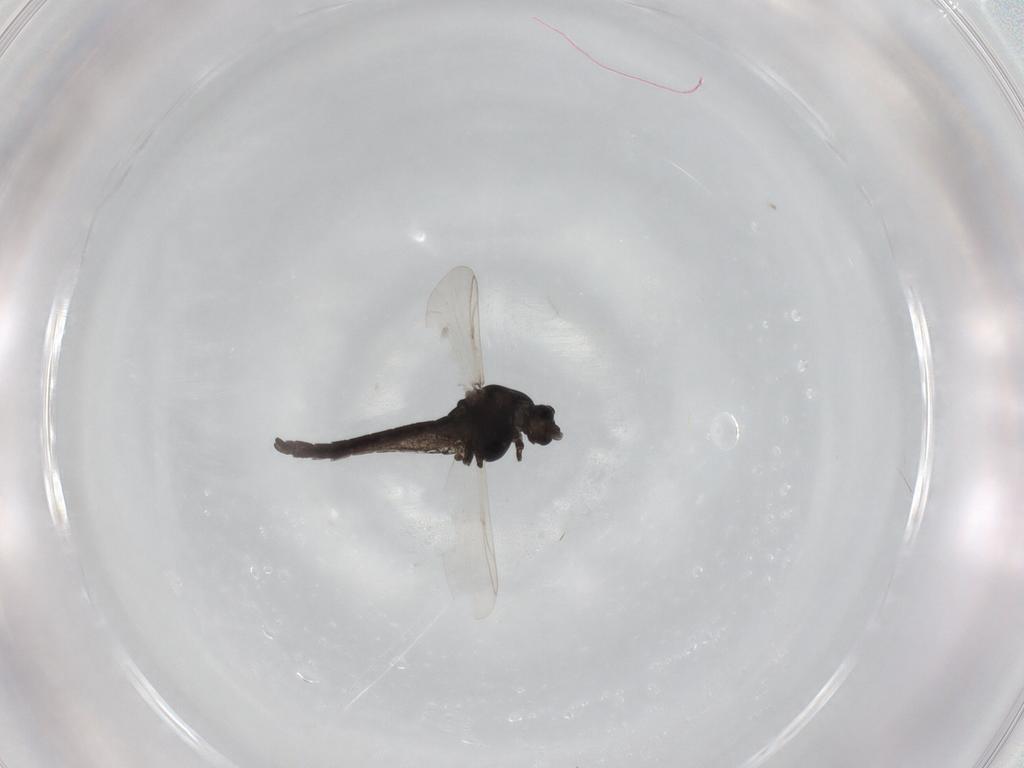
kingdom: Animalia
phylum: Arthropoda
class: Insecta
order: Diptera
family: Chironomidae
